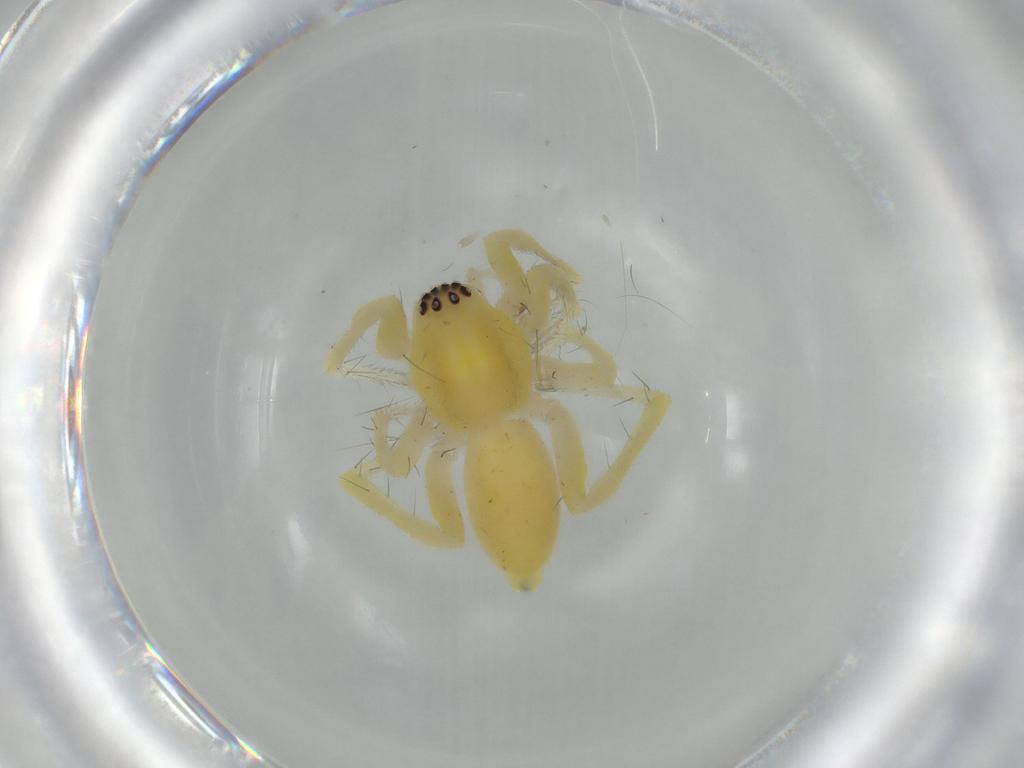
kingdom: Animalia
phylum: Arthropoda
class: Arachnida
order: Araneae
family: Anyphaenidae
